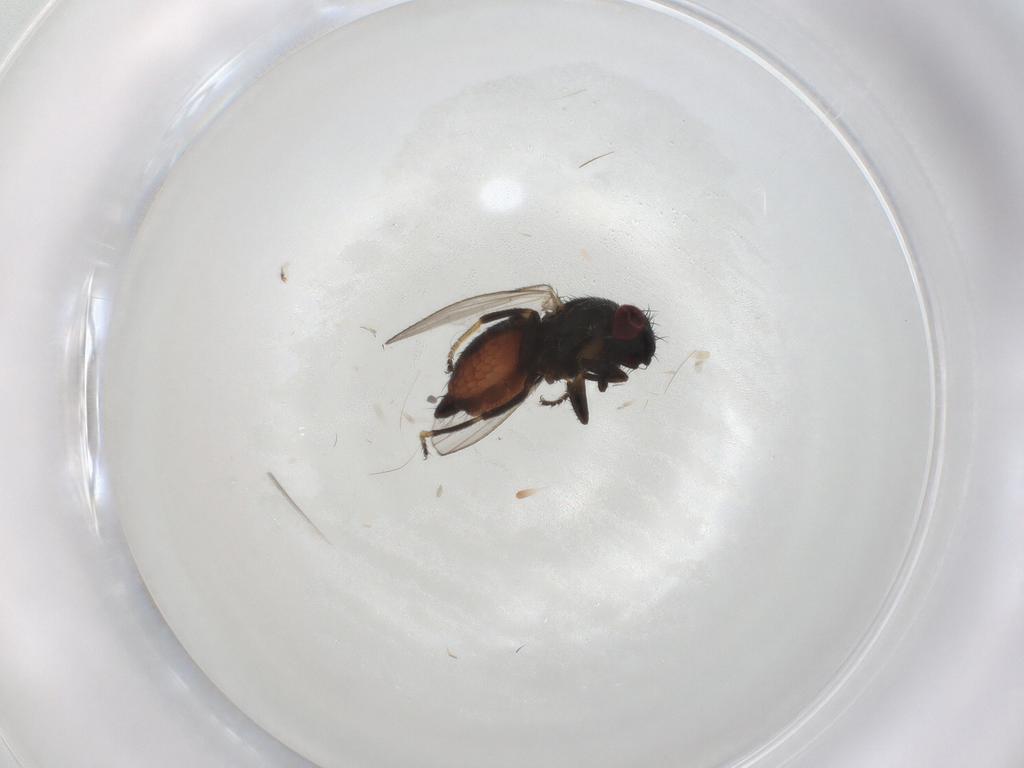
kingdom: Animalia
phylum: Arthropoda
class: Insecta
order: Diptera
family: Milichiidae
